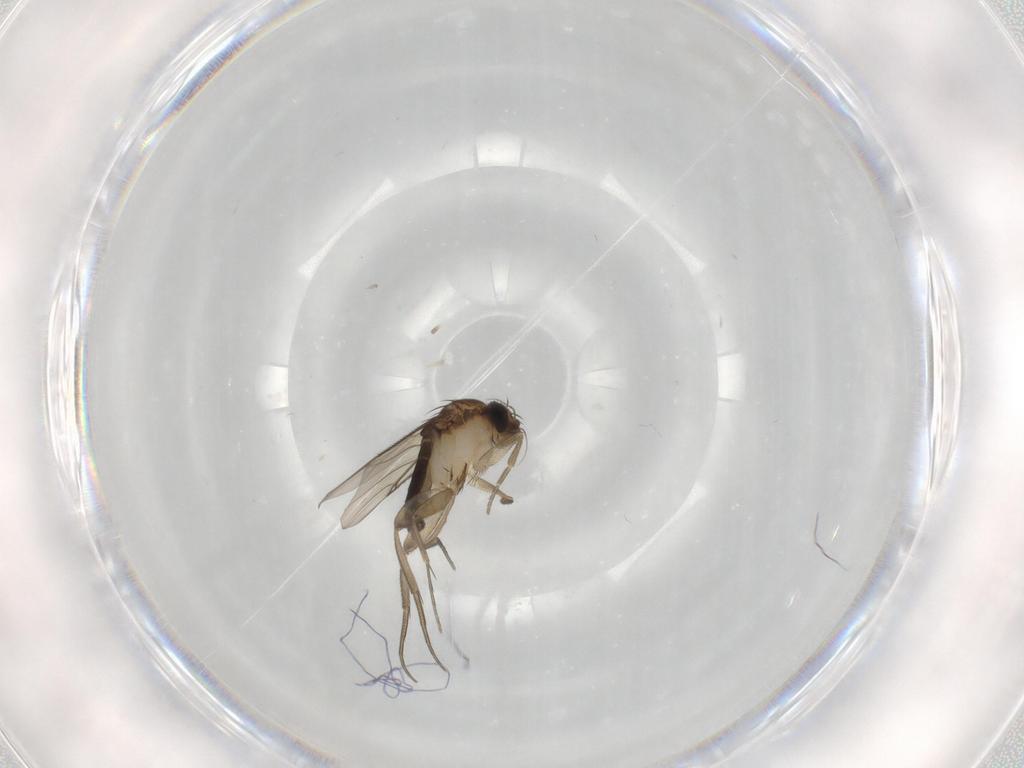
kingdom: Animalia
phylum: Arthropoda
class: Insecta
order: Diptera
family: Phoridae
